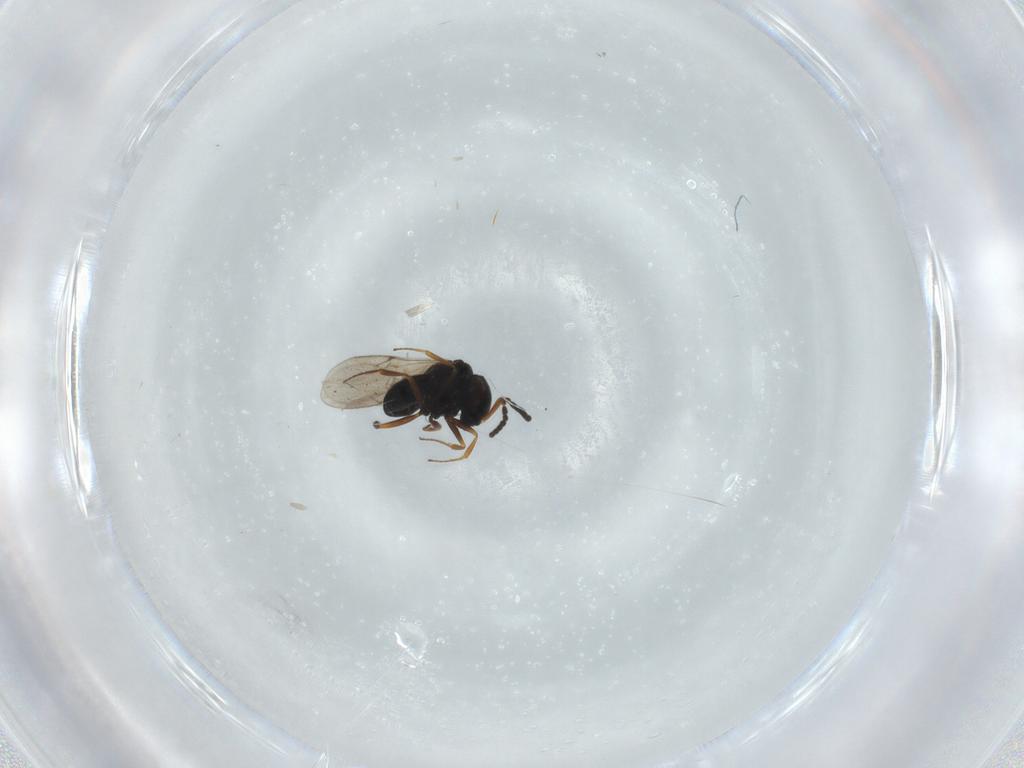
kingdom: Animalia
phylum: Arthropoda
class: Insecta
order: Hymenoptera
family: Scelionidae
